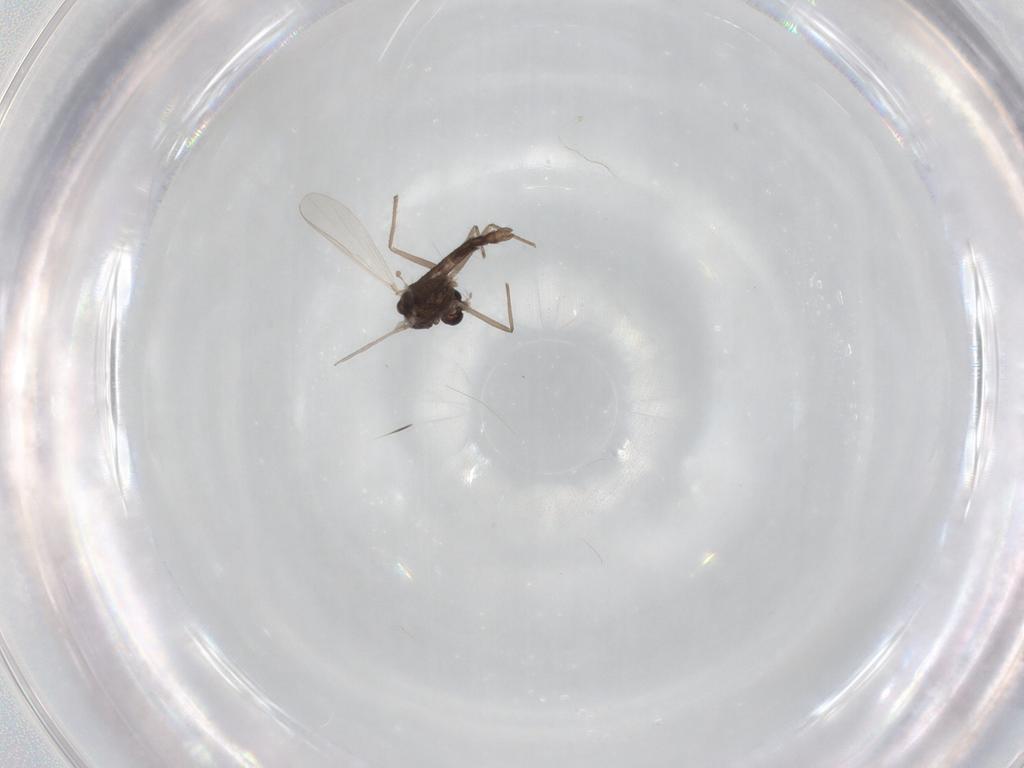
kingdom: Animalia
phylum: Arthropoda
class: Insecta
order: Diptera
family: Chironomidae
